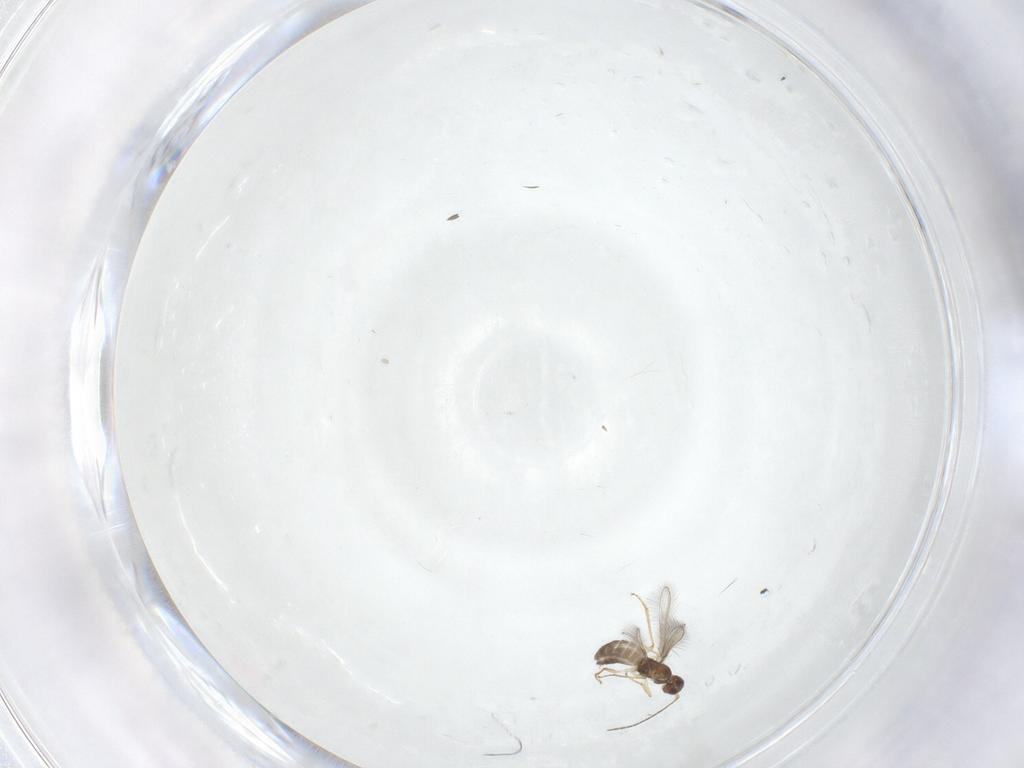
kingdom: Animalia
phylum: Arthropoda
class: Insecta
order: Hymenoptera
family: Mymaridae
